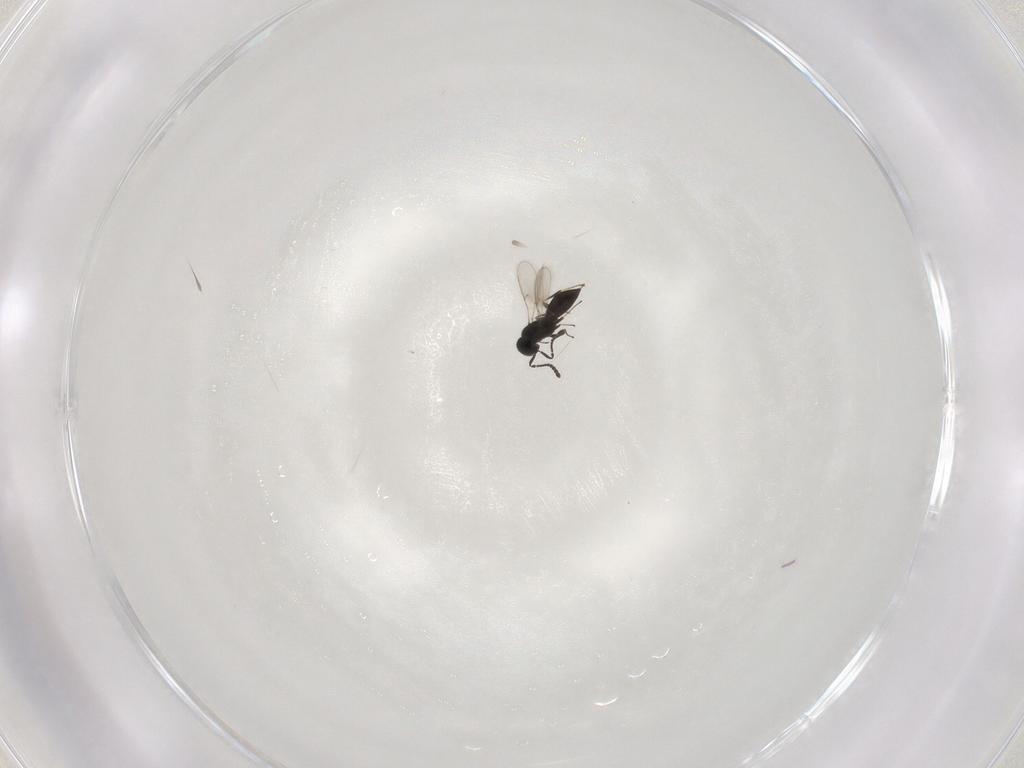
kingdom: Animalia
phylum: Arthropoda
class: Insecta
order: Hymenoptera
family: Scelionidae
